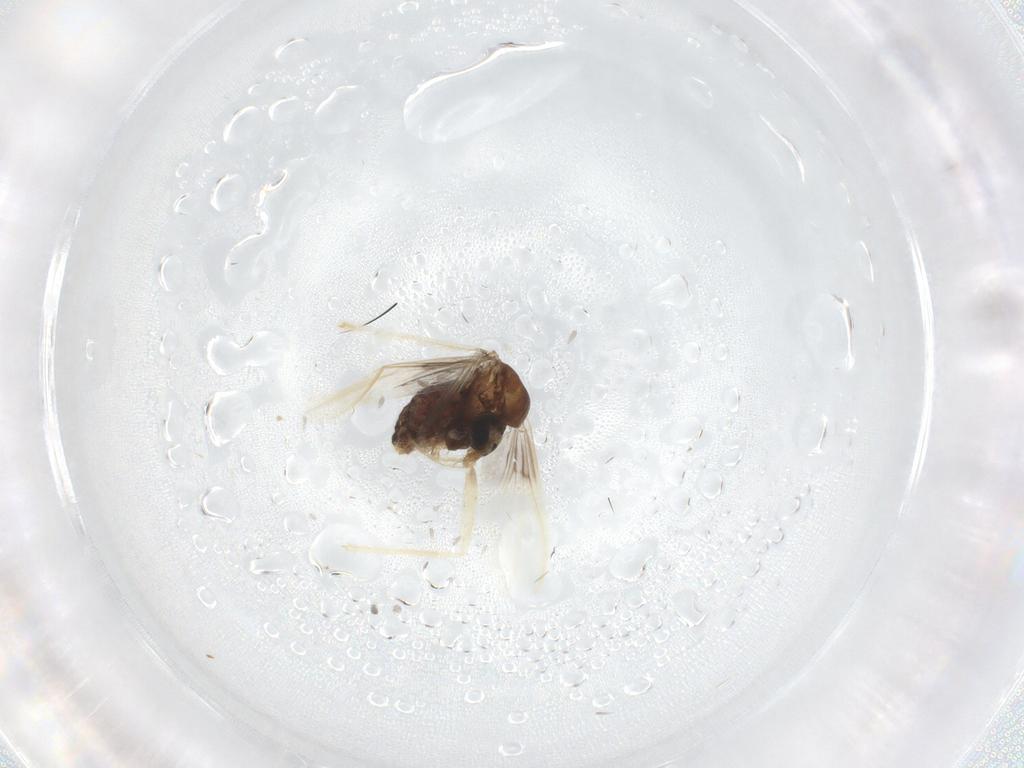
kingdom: Animalia
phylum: Arthropoda
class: Insecta
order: Diptera
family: Chironomidae
